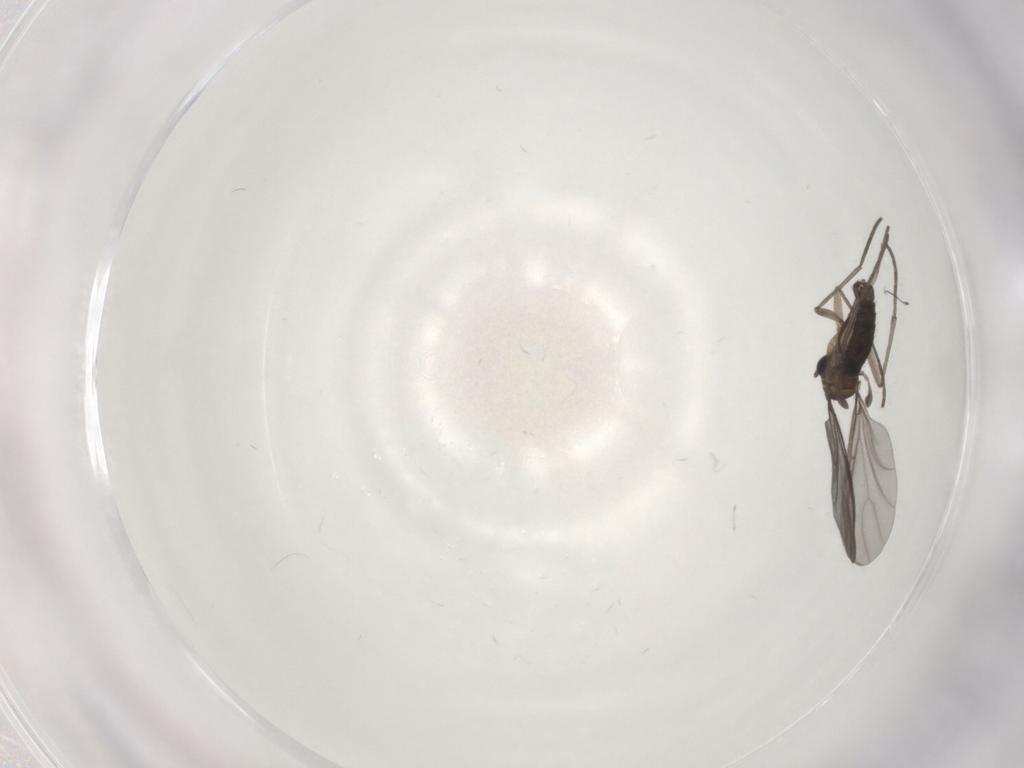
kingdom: Animalia
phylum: Arthropoda
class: Insecta
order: Diptera
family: Sciaridae
